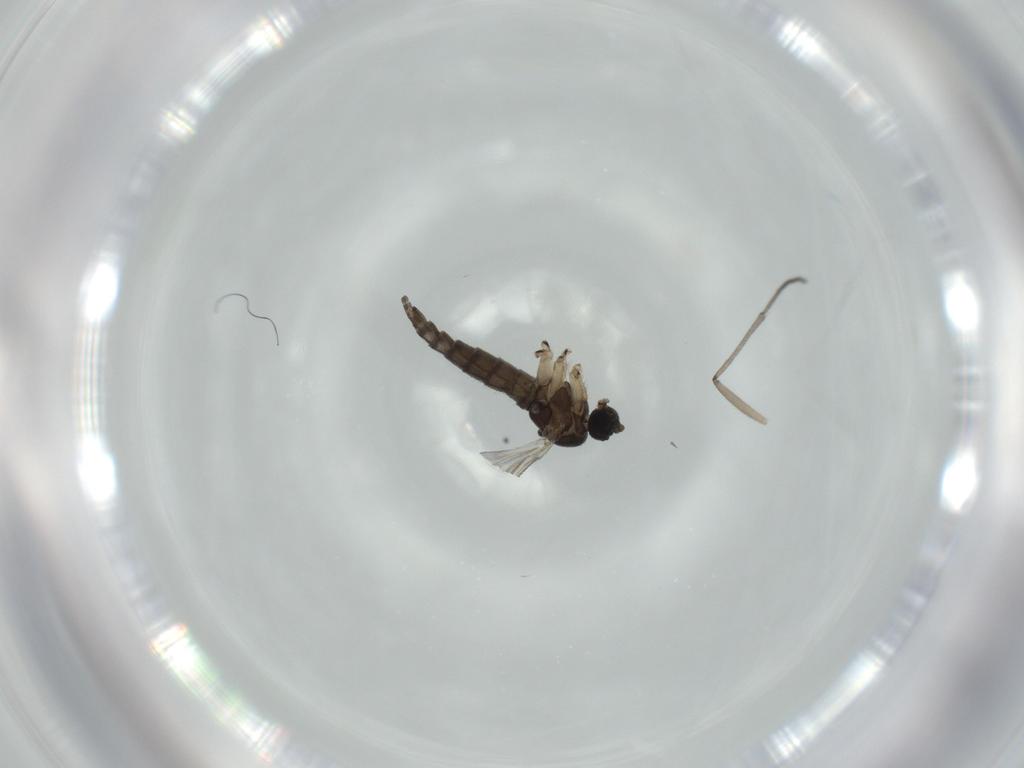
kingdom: Animalia
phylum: Arthropoda
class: Insecta
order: Diptera
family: Sciaridae
